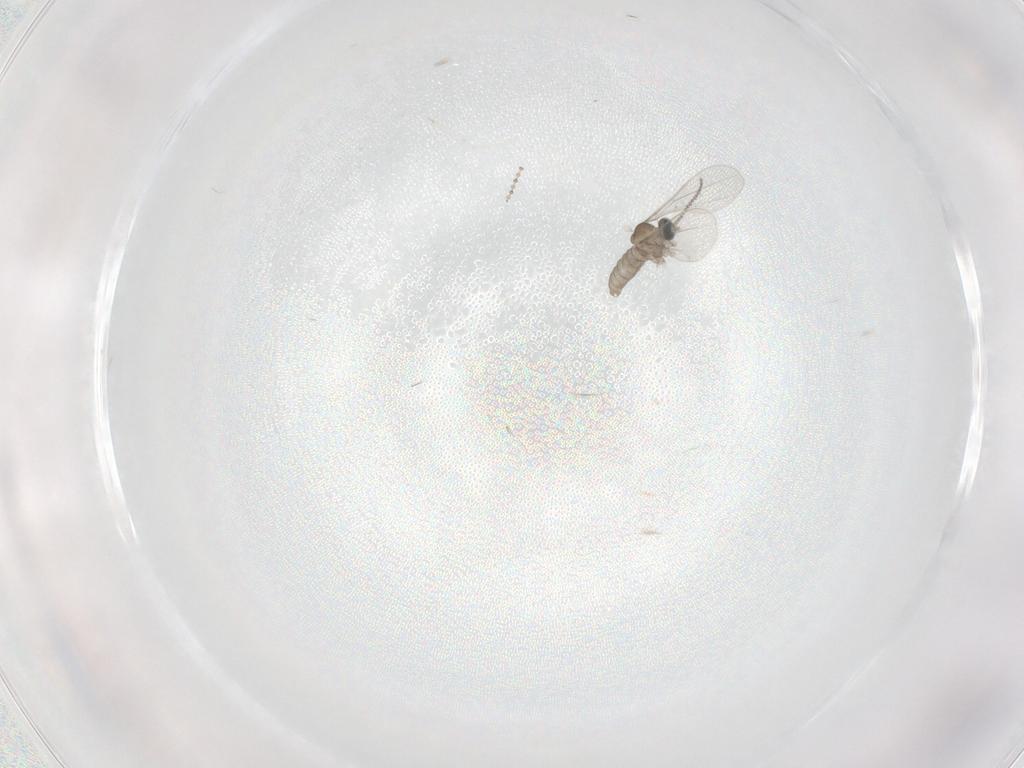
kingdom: Animalia
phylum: Arthropoda
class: Insecta
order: Diptera
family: Cecidomyiidae
